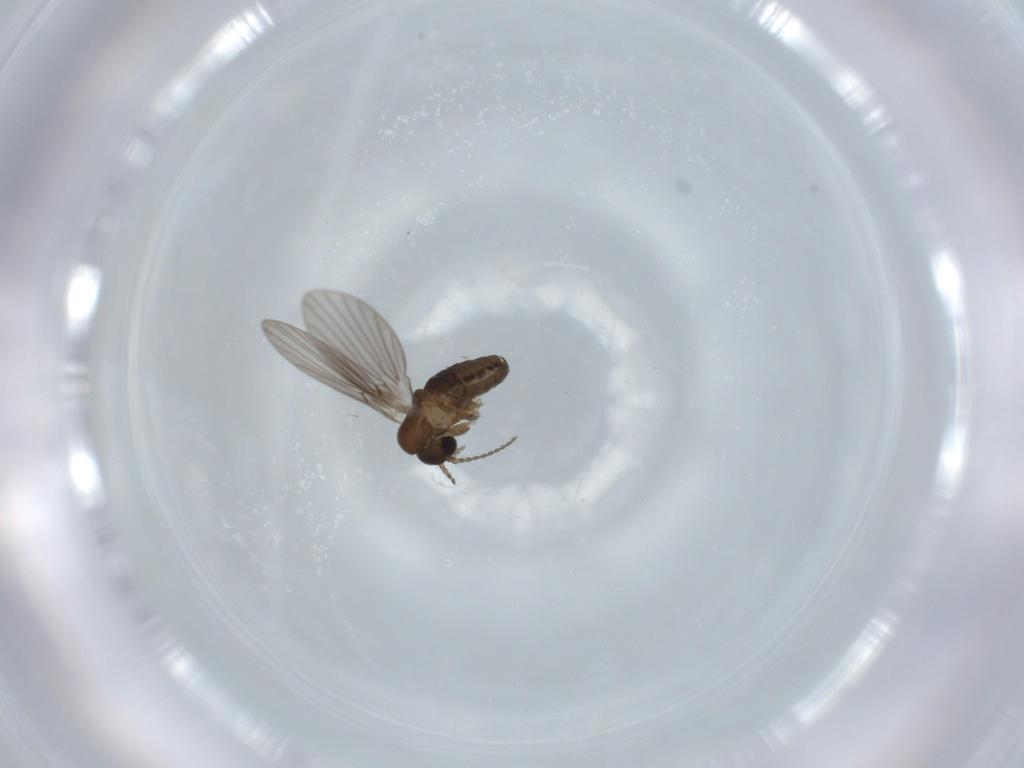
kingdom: Animalia
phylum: Arthropoda
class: Insecta
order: Diptera
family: Psychodidae
